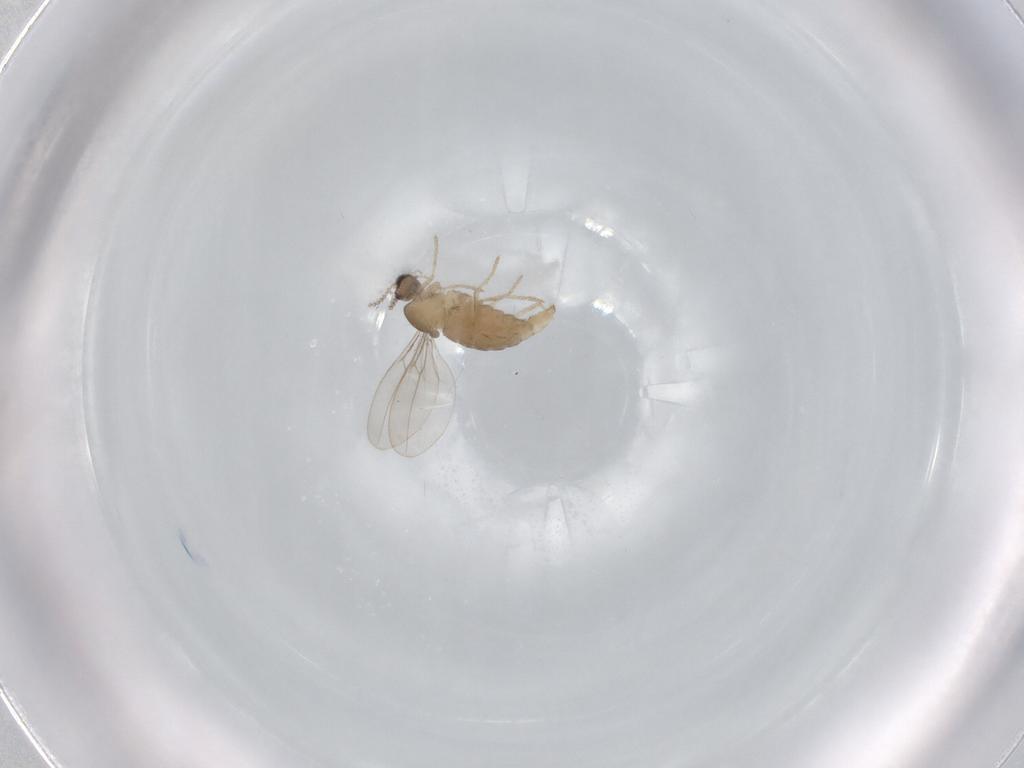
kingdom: Animalia
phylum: Arthropoda
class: Insecta
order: Diptera
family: Cecidomyiidae
